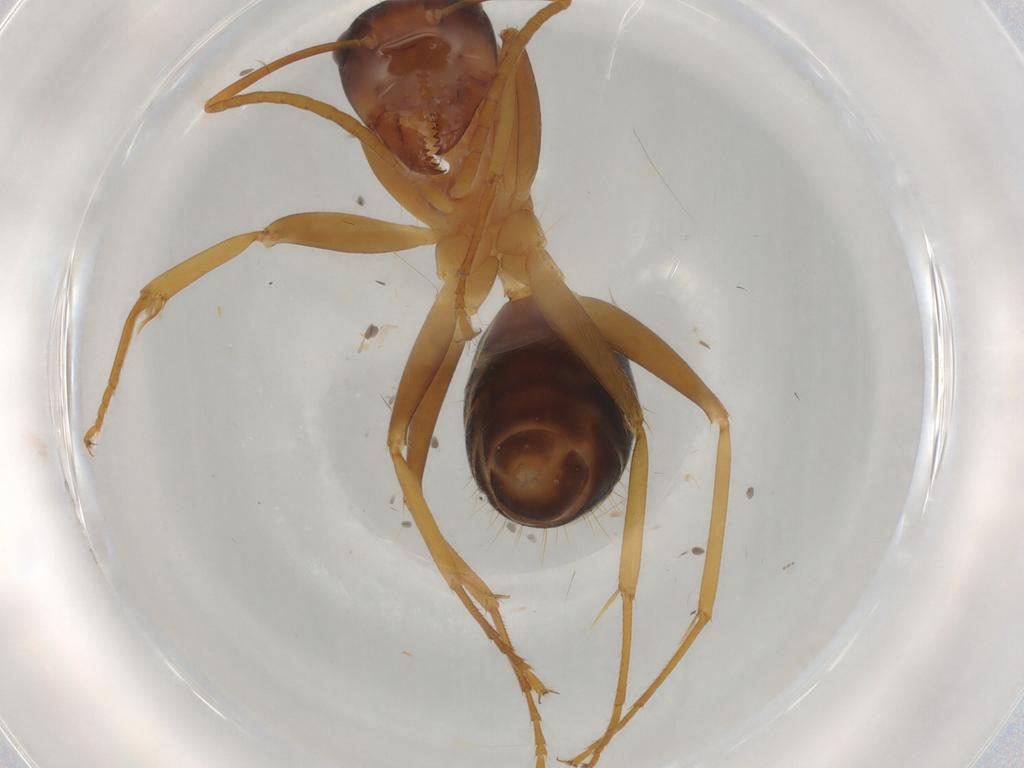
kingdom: Animalia
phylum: Arthropoda
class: Insecta
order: Hymenoptera
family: Formicidae
